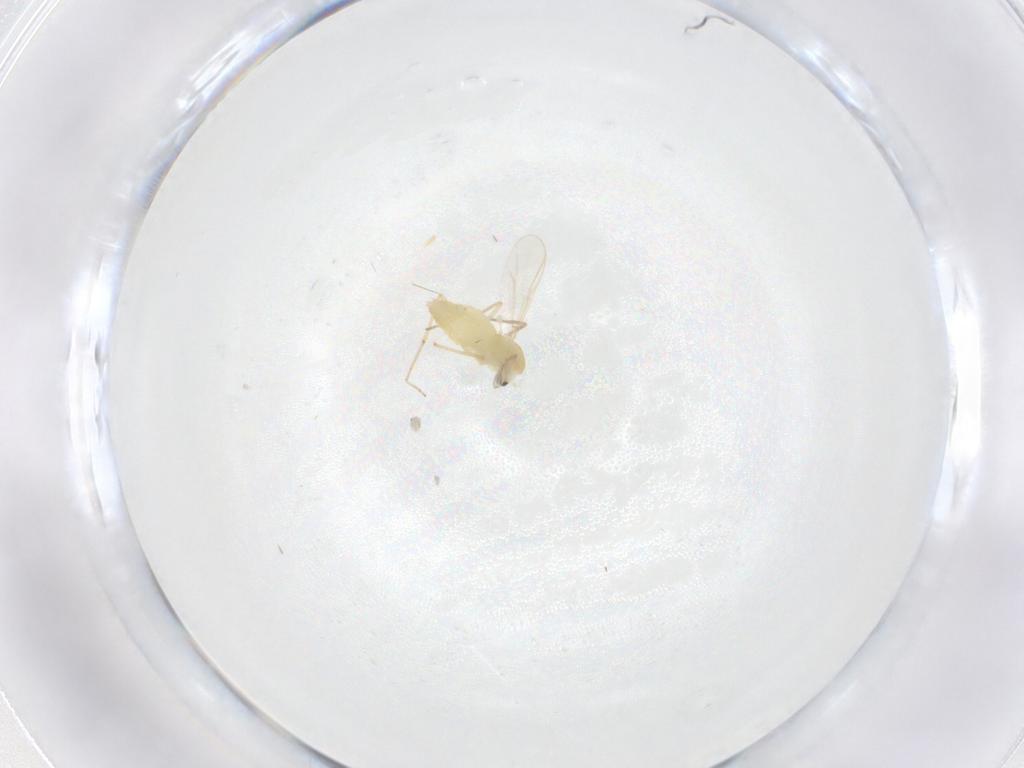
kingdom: Animalia
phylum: Arthropoda
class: Insecta
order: Diptera
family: Chironomidae
